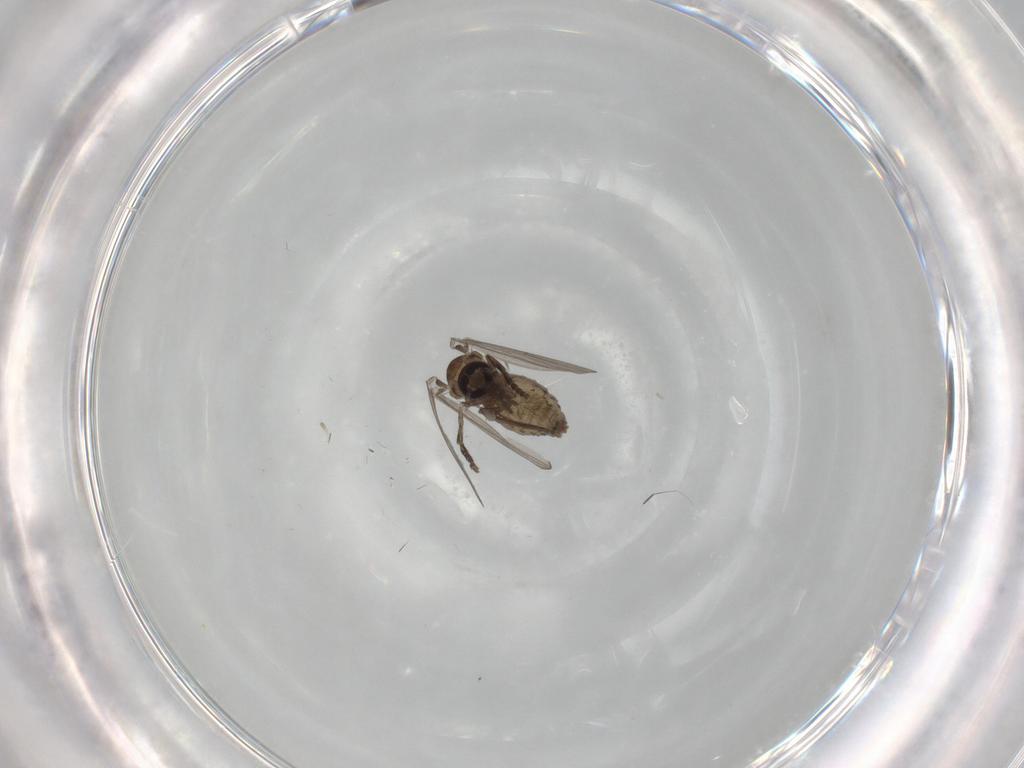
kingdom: Animalia
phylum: Arthropoda
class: Insecta
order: Diptera
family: Psychodidae
